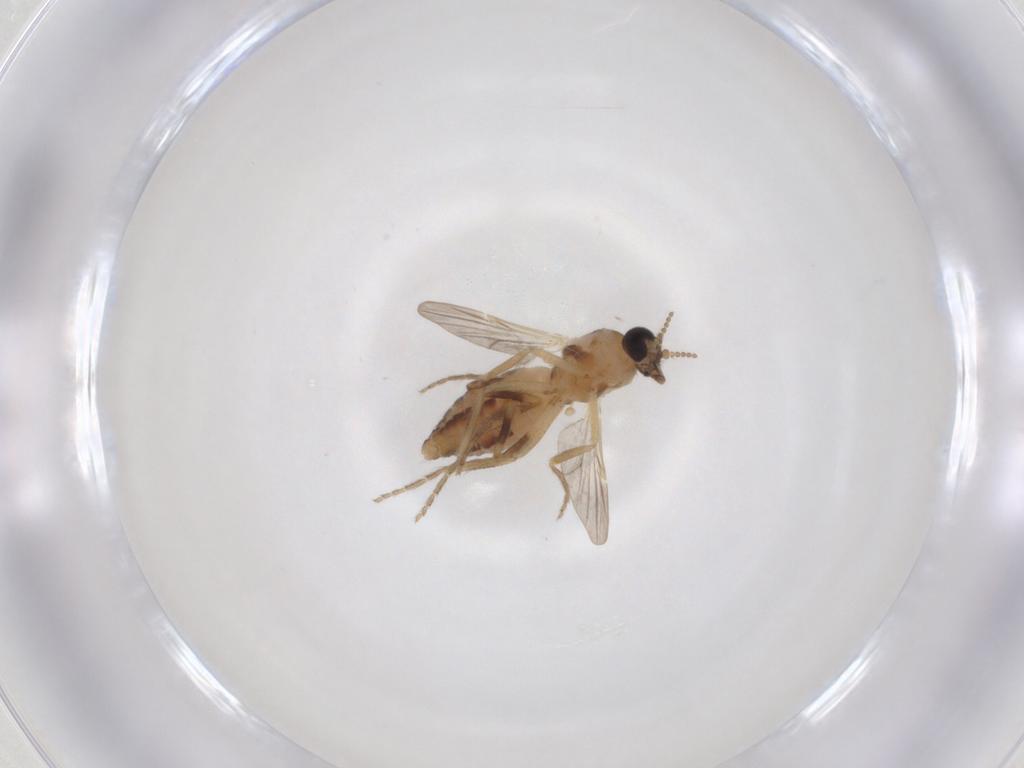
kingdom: Animalia
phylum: Arthropoda
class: Insecta
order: Diptera
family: Ceratopogonidae
